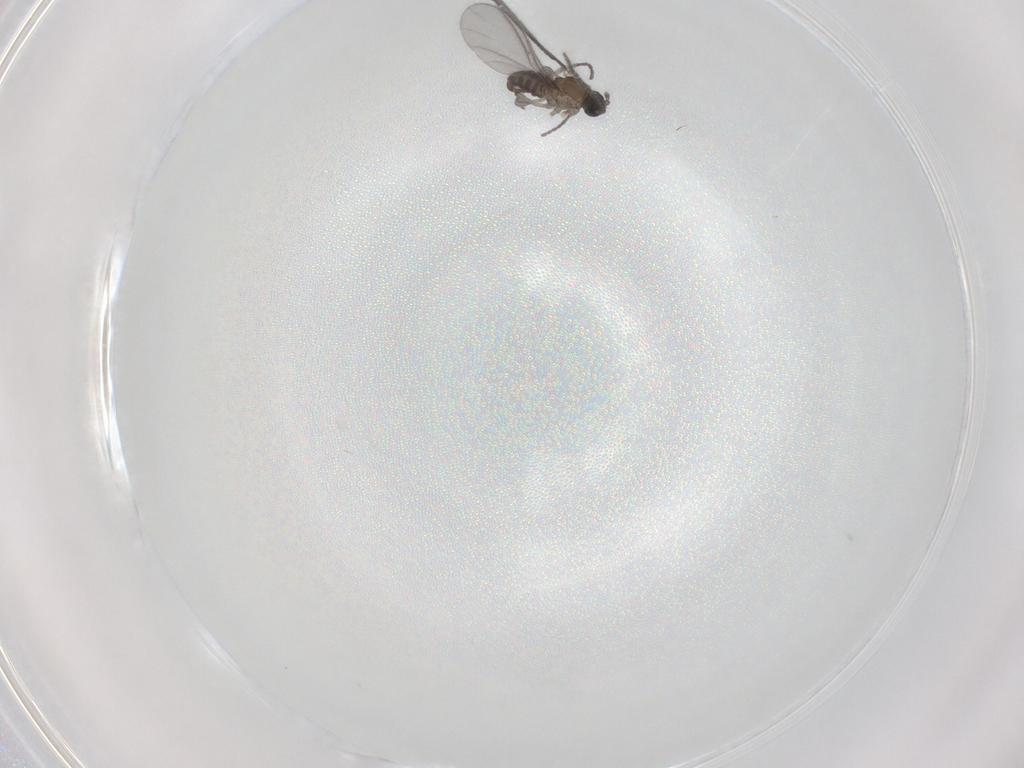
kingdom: Animalia
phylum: Arthropoda
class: Insecta
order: Diptera
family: Sciaridae
